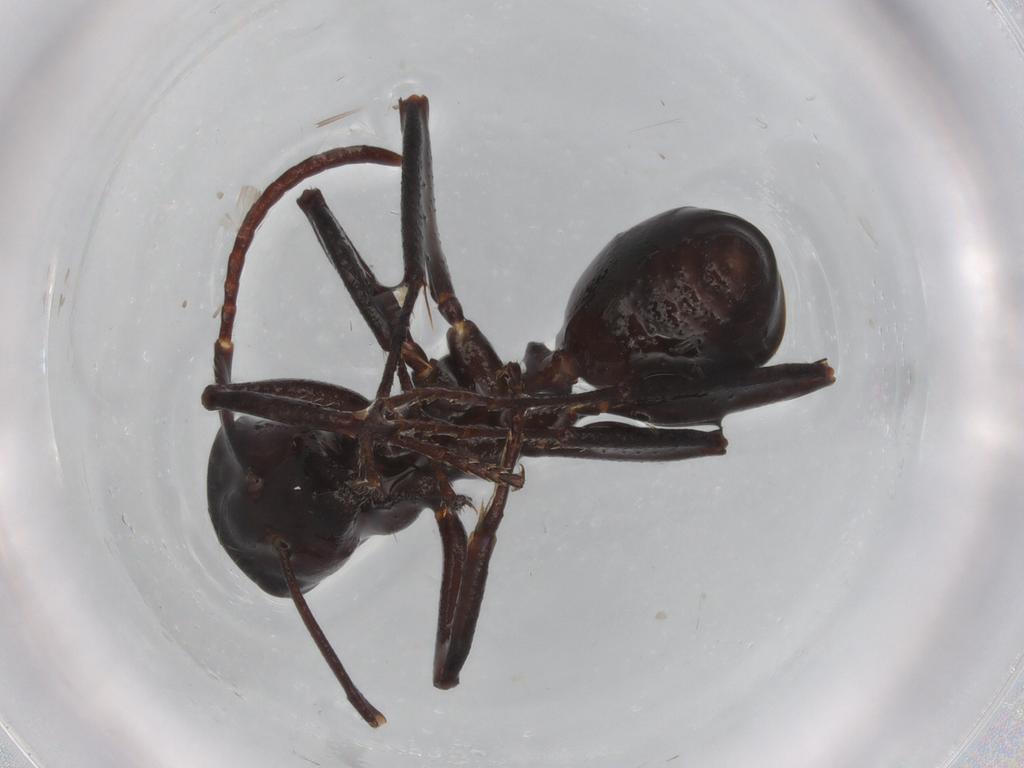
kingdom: Animalia
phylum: Arthropoda
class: Insecta
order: Hymenoptera
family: Formicidae
